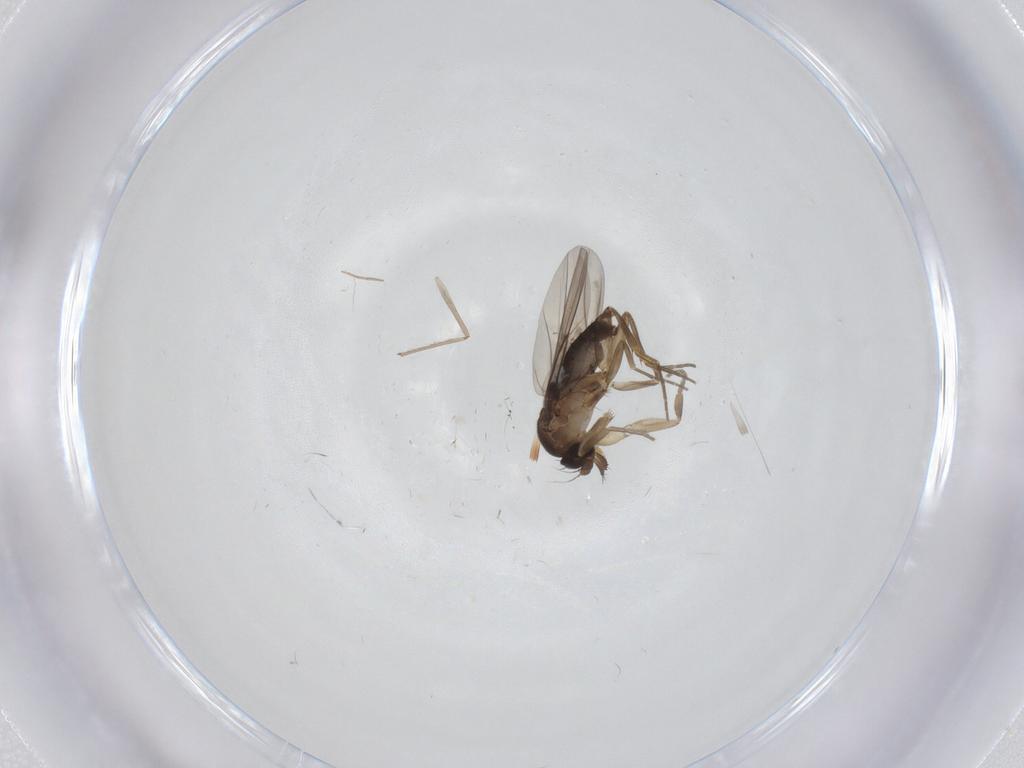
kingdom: Animalia
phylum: Arthropoda
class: Insecta
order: Diptera
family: Phoridae
